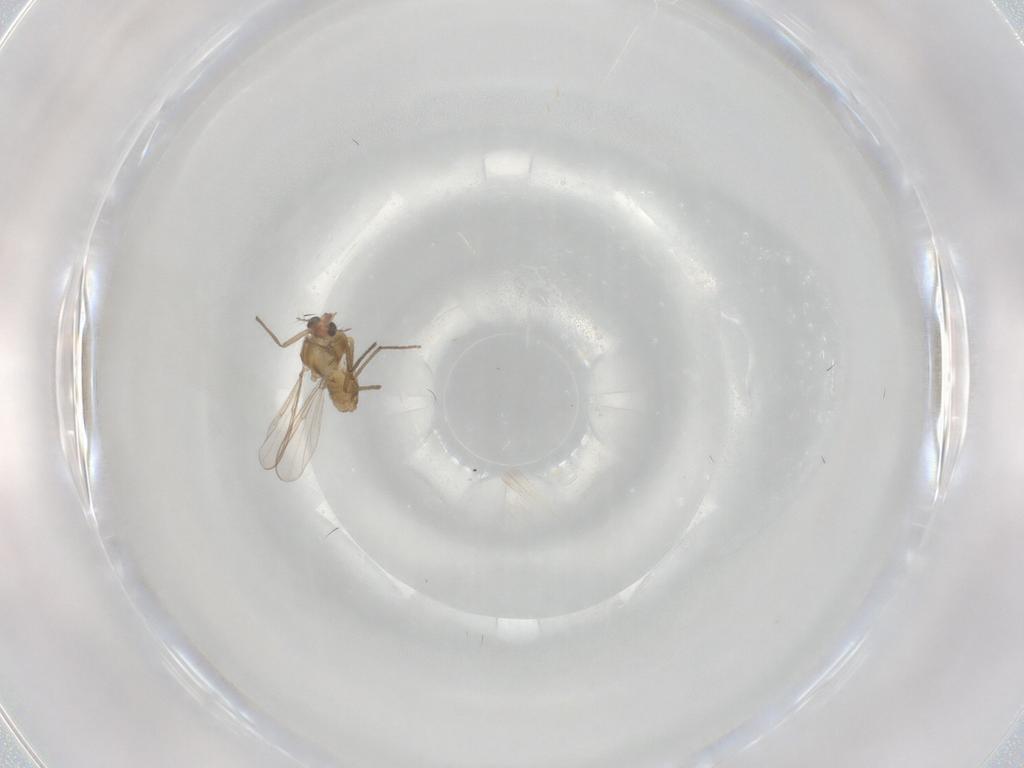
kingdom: Animalia
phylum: Arthropoda
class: Insecta
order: Diptera
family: Chironomidae
